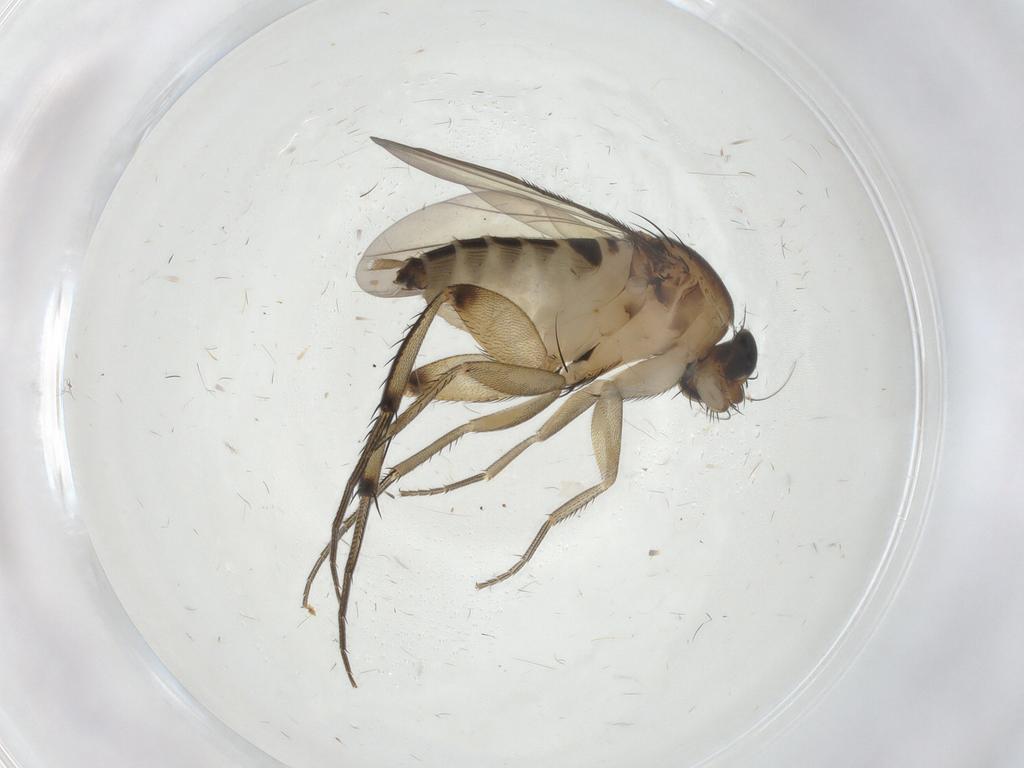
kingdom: Animalia
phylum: Arthropoda
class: Insecta
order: Diptera
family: Phoridae
